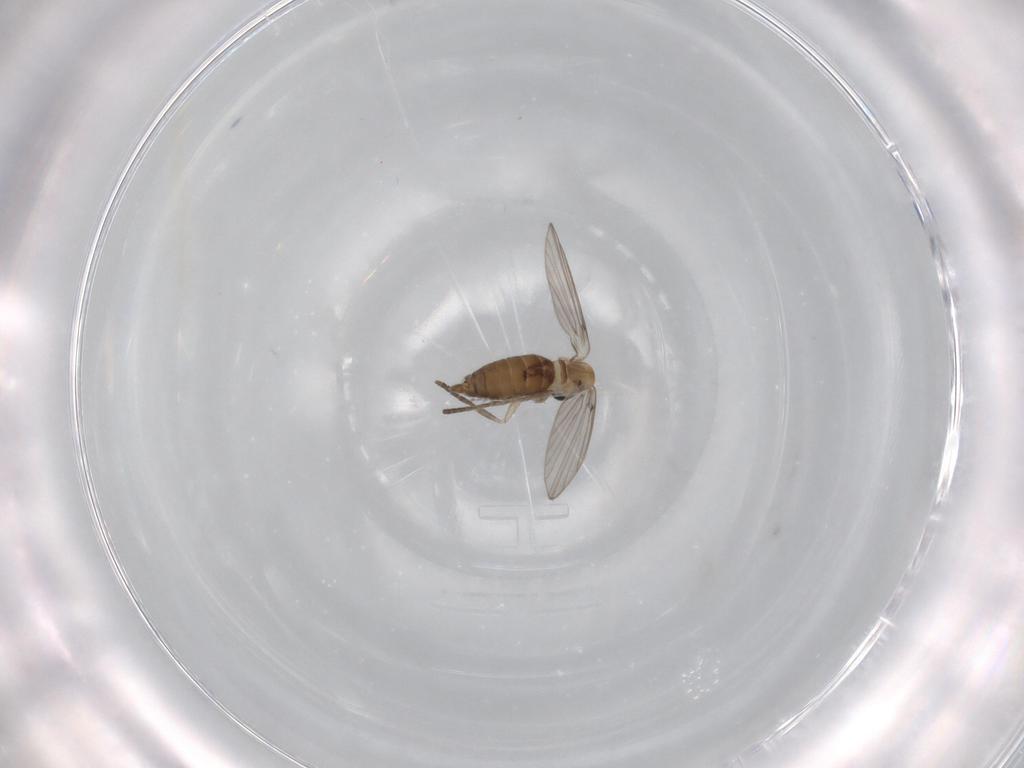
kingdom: Animalia
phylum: Arthropoda
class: Insecta
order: Diptera
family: Psychodidae
